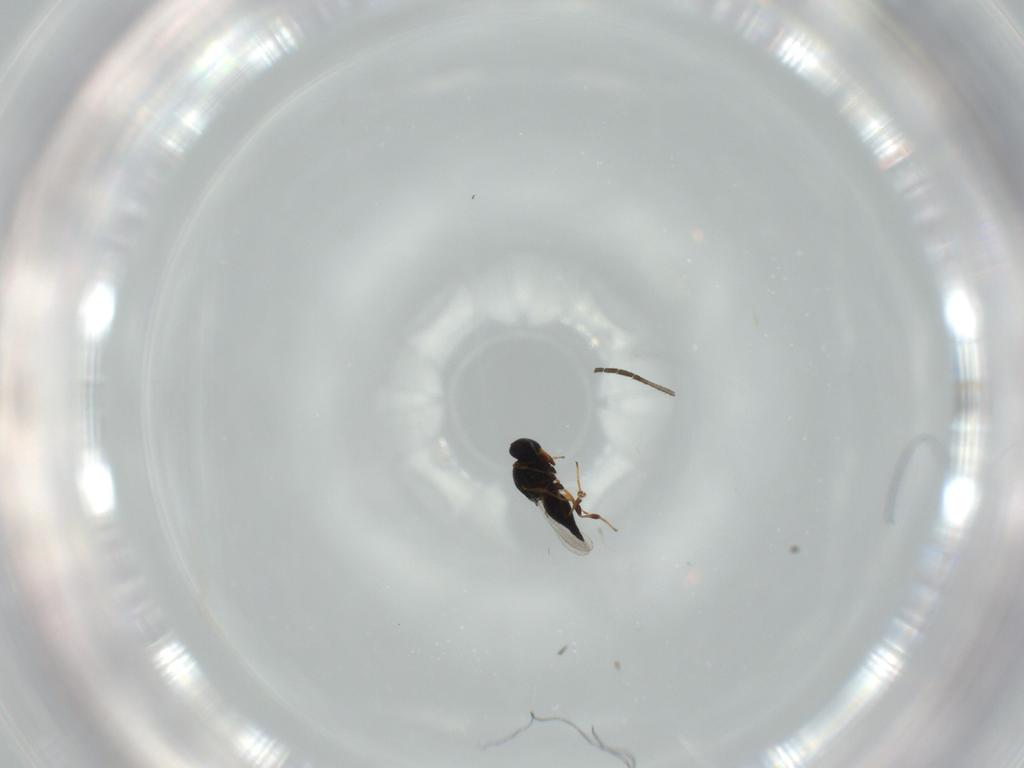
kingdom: Animalia
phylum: Arthropoda
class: Insecta
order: Hymenoptera
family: Platygastridae
